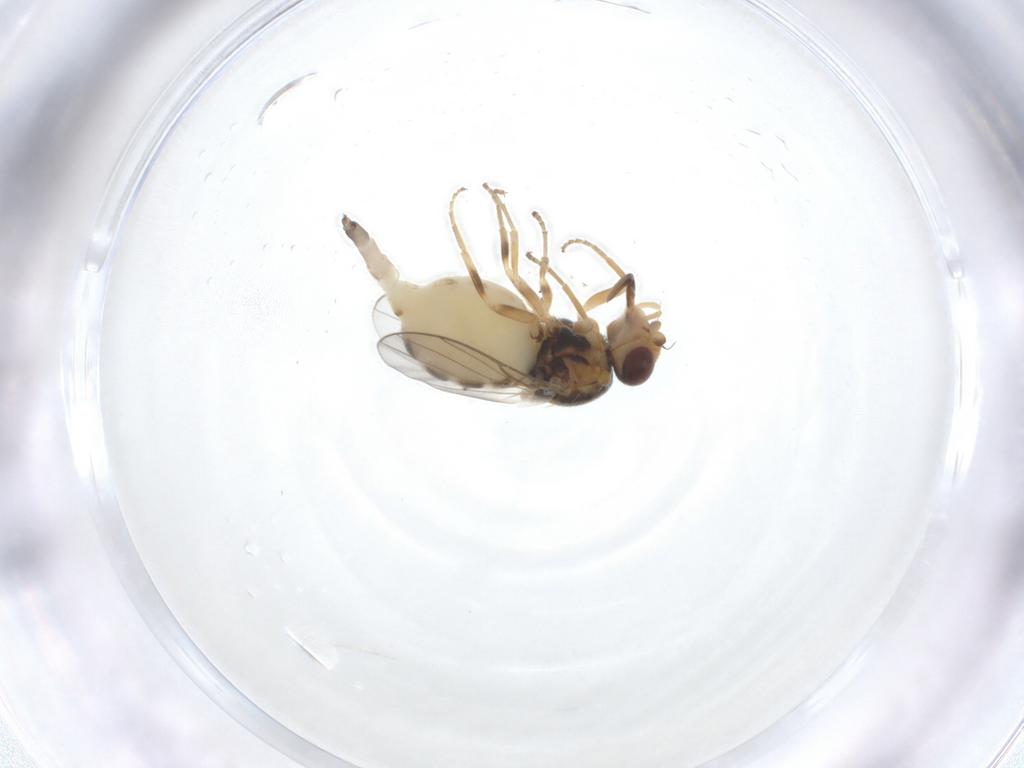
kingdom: Animalia
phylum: Arthropoda
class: Insecta
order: Diptera
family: Chloropidae
